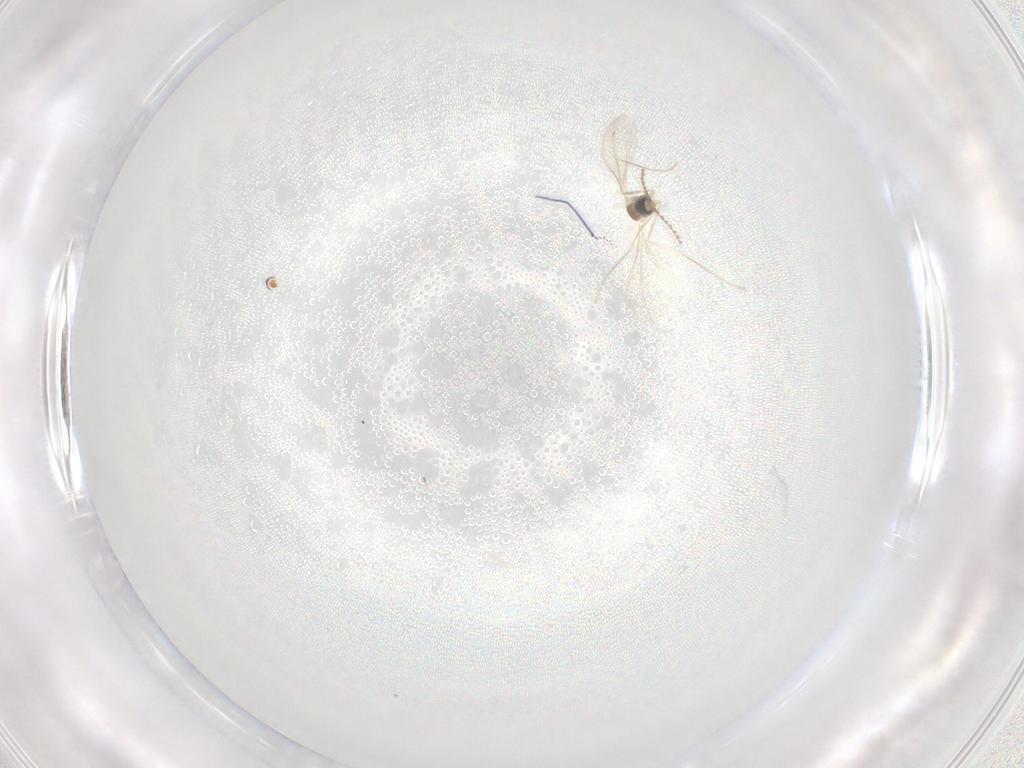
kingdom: Animalia
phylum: Arthropoda
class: Insecta
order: Diptera
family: Cecidomyiidae
